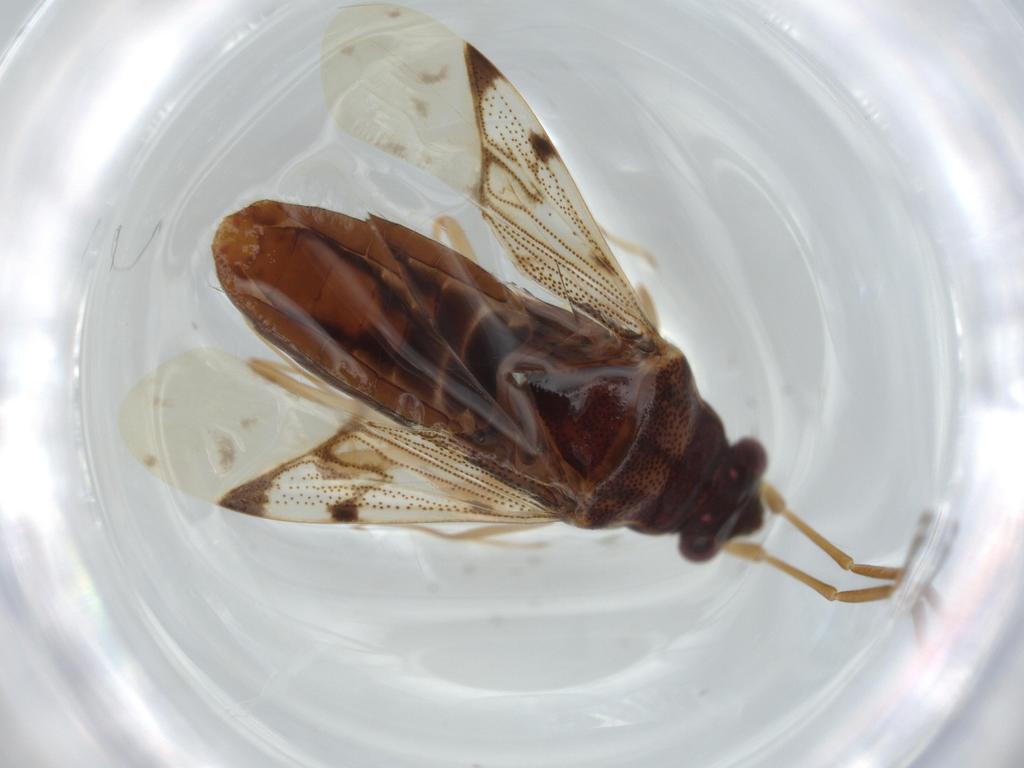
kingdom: Animalia
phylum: Arthropoda
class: Insecta
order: Hemiptera
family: Rhyparochromidae
